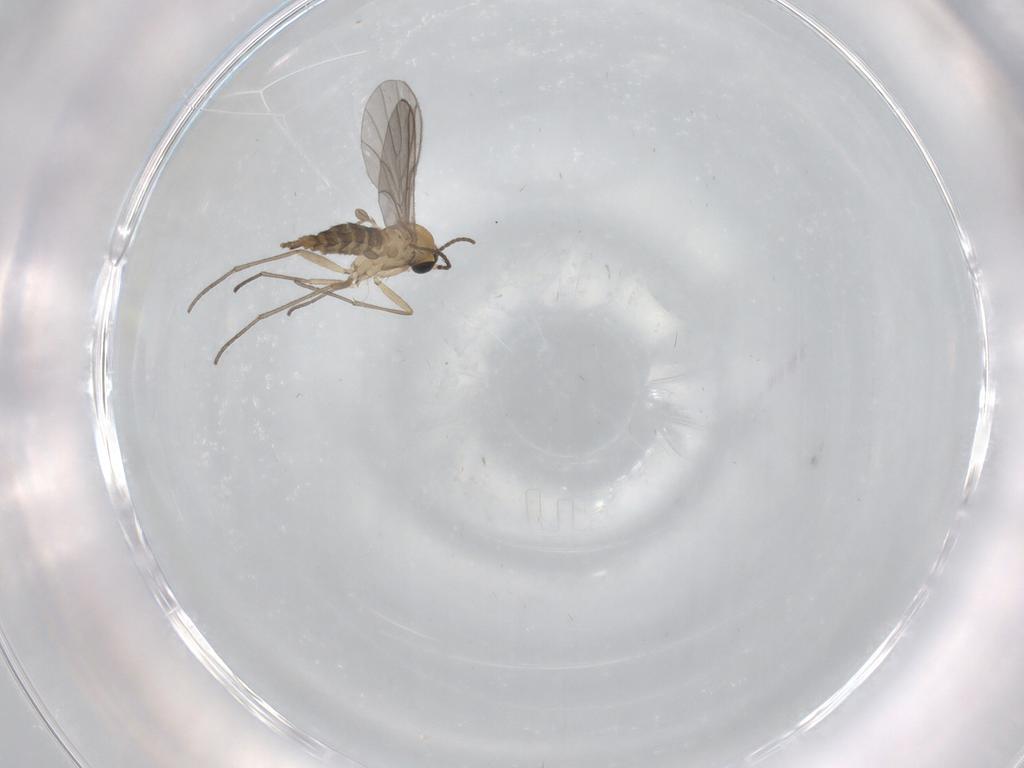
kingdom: Animalia
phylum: Arthropoda
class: Insecta
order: Diptera
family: Phoridae
